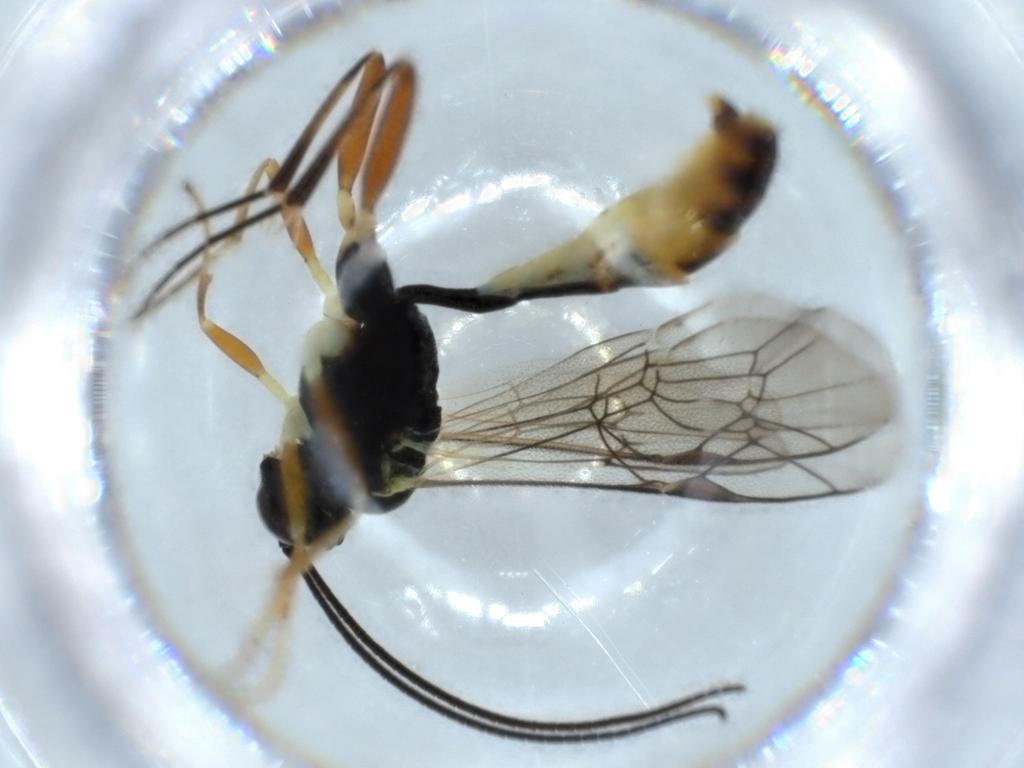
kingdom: Animalia
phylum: Arthropoda
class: Insecta
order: Hymenoptera
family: Ichneumonidae
